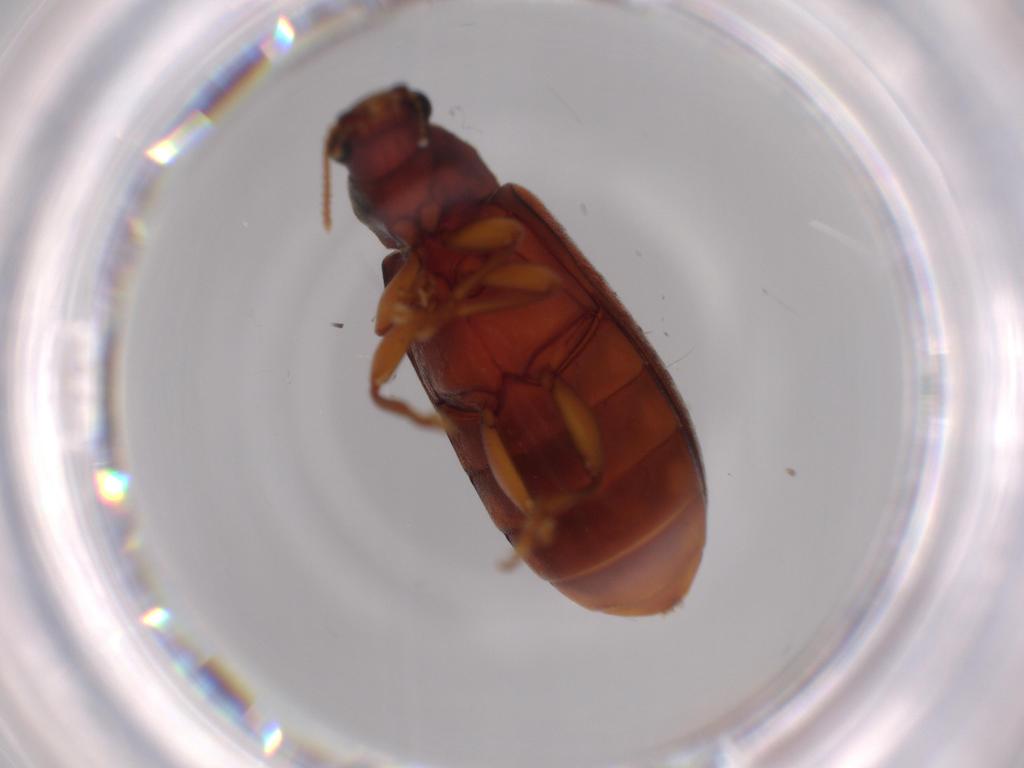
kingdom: Animalia
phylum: Arthropoda
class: Insecta
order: Coleoptera
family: Mycteridae
